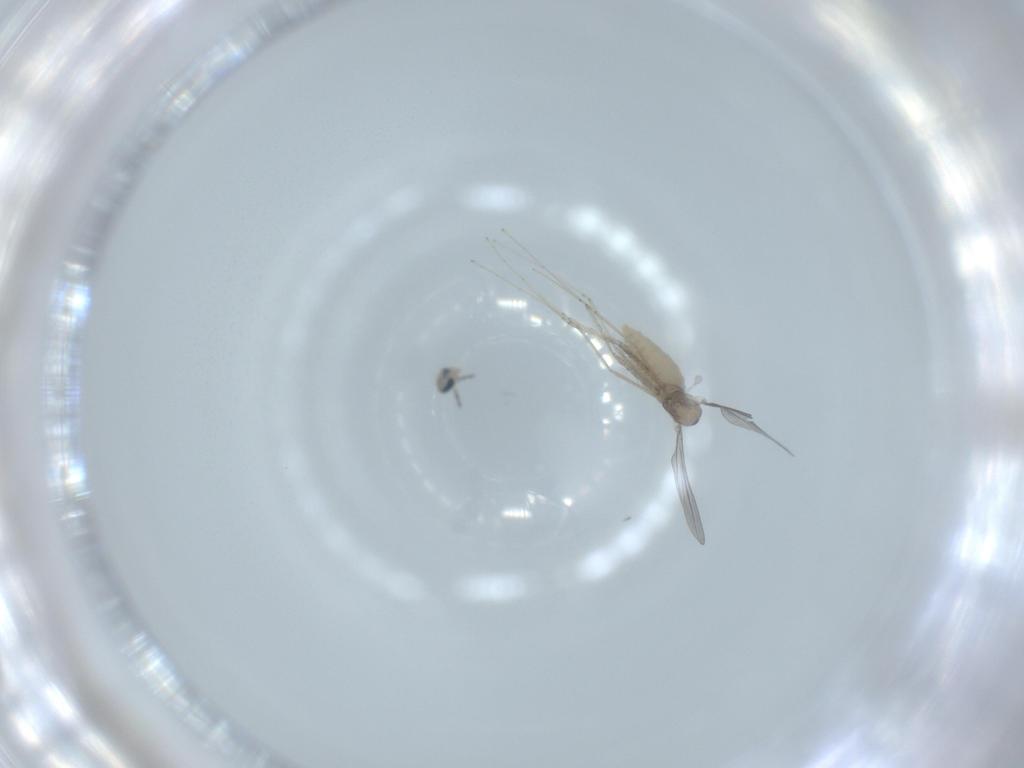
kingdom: Animalia
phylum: Arthropoda
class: Insecta
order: Diptera
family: Cecidomyiidae
